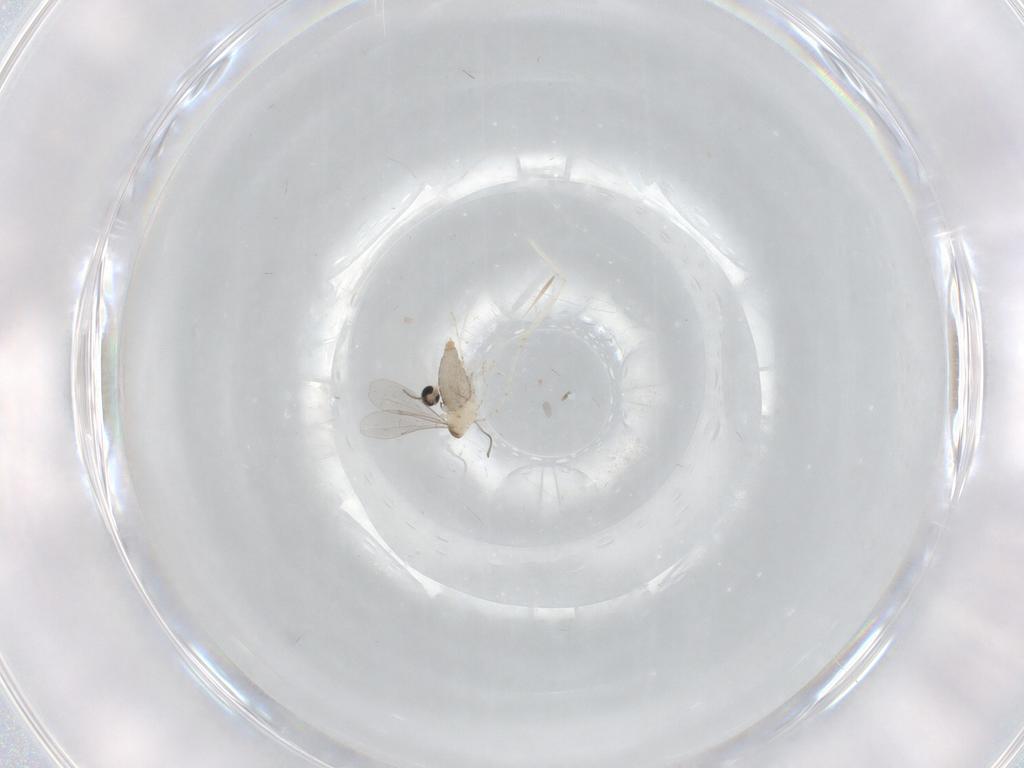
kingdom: Animalia
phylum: Arthropoda
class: Insecta
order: Diptera
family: Cecidomyiidae
